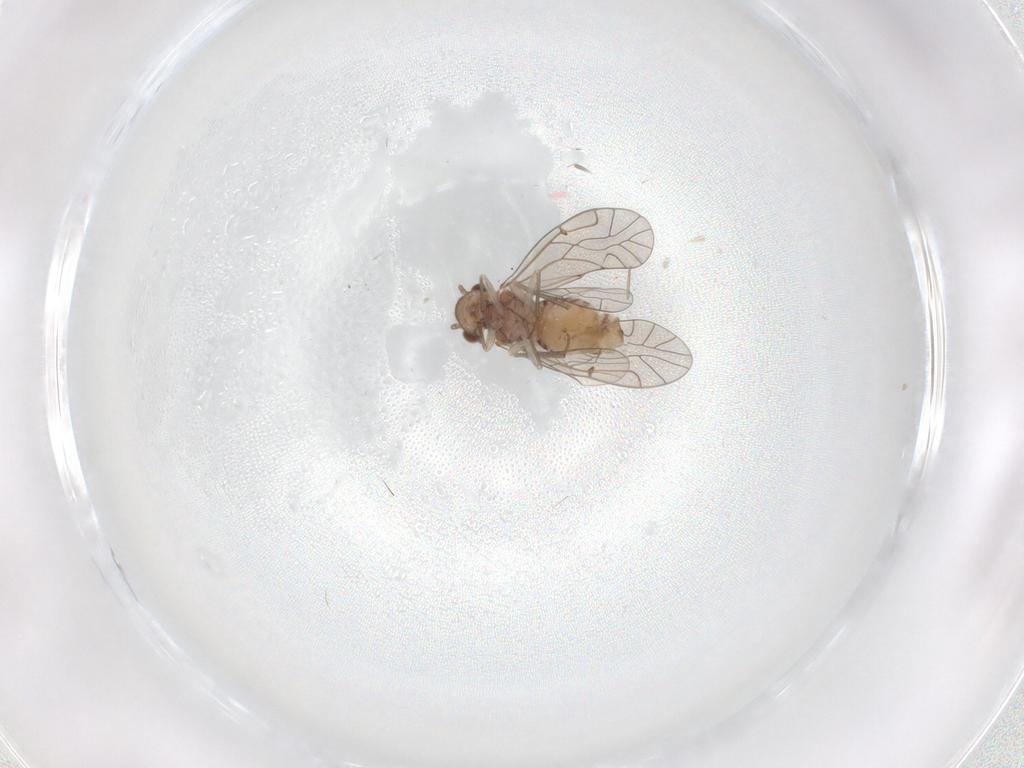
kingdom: Animalia
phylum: Arthropoda
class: Insecta
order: Psocodea
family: Lachesillidae
